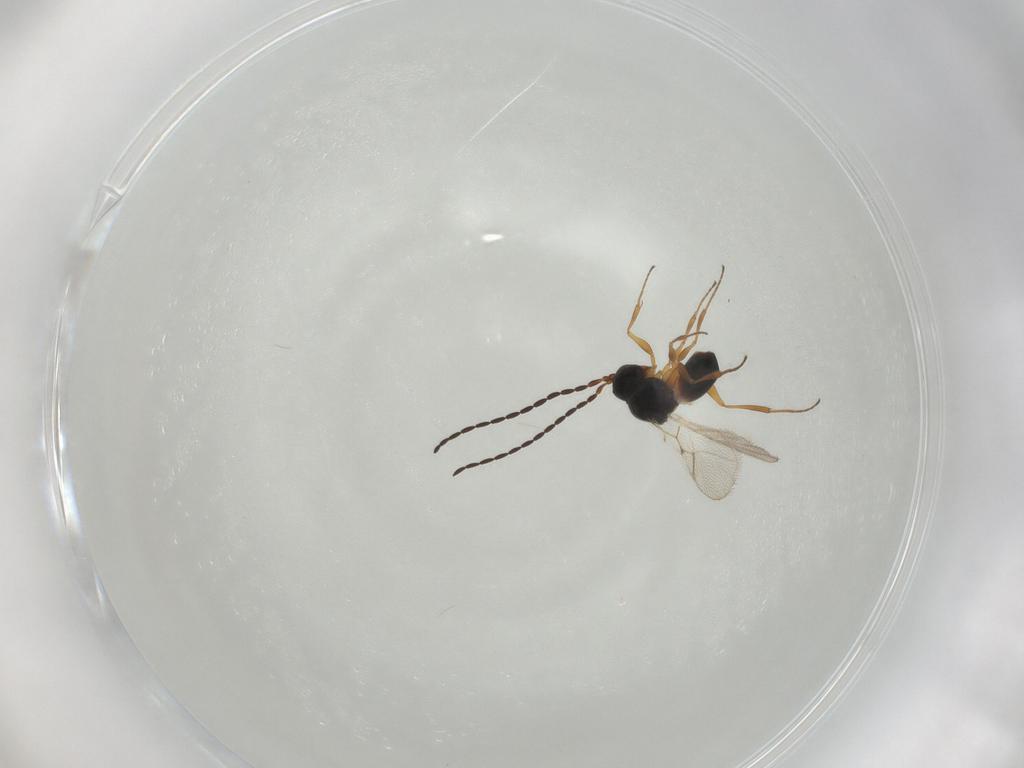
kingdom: Animalia
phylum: Arthropoda
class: Insecta
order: Hymenoptera
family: Figitidae
